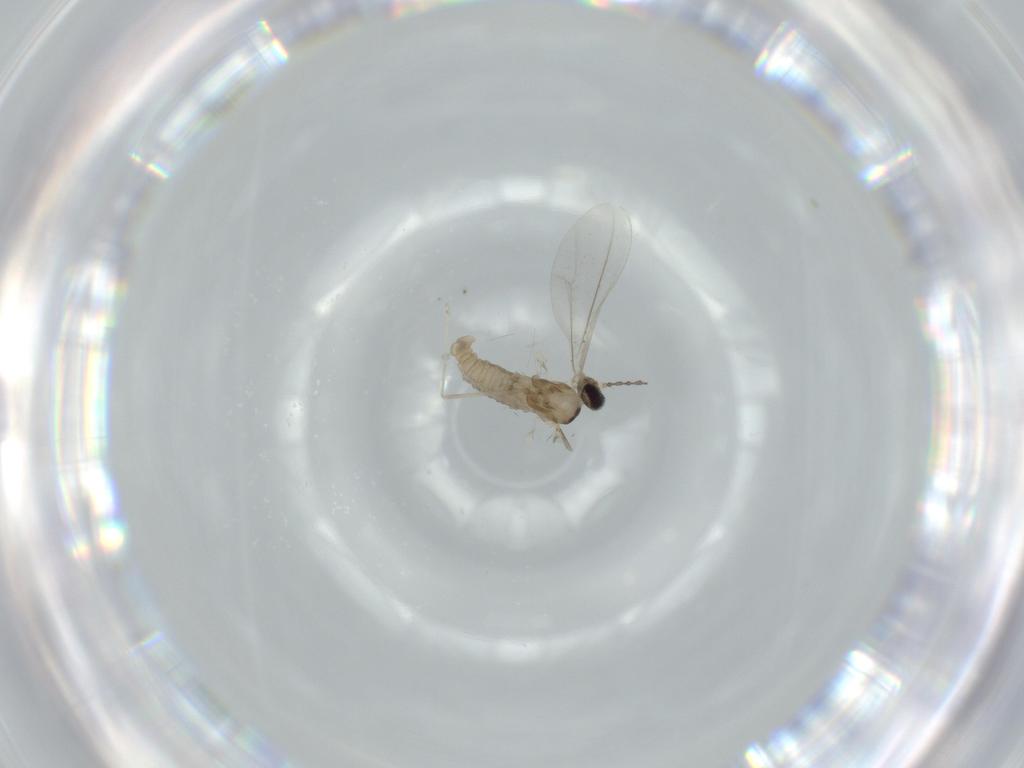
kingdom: Animalia
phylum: Arthropoda
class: Insecta
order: Diptera
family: Cecidomyiidae
